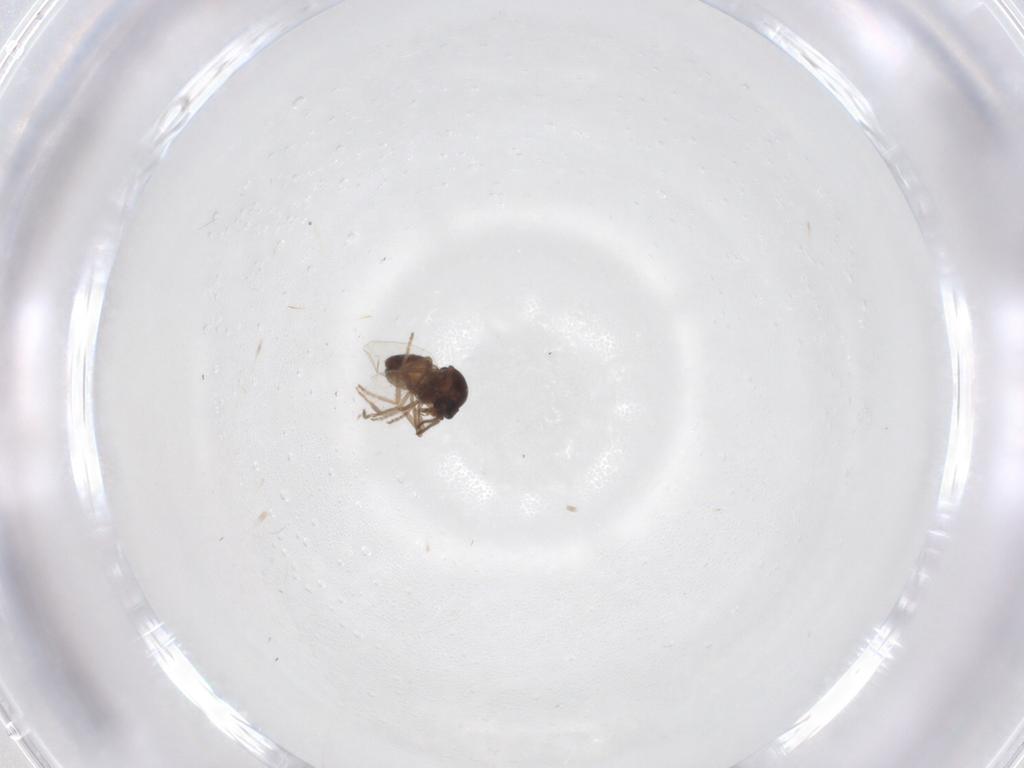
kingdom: Animalia
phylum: Arthropoda
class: Insecta
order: Diptera
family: Ceratopogonidae
